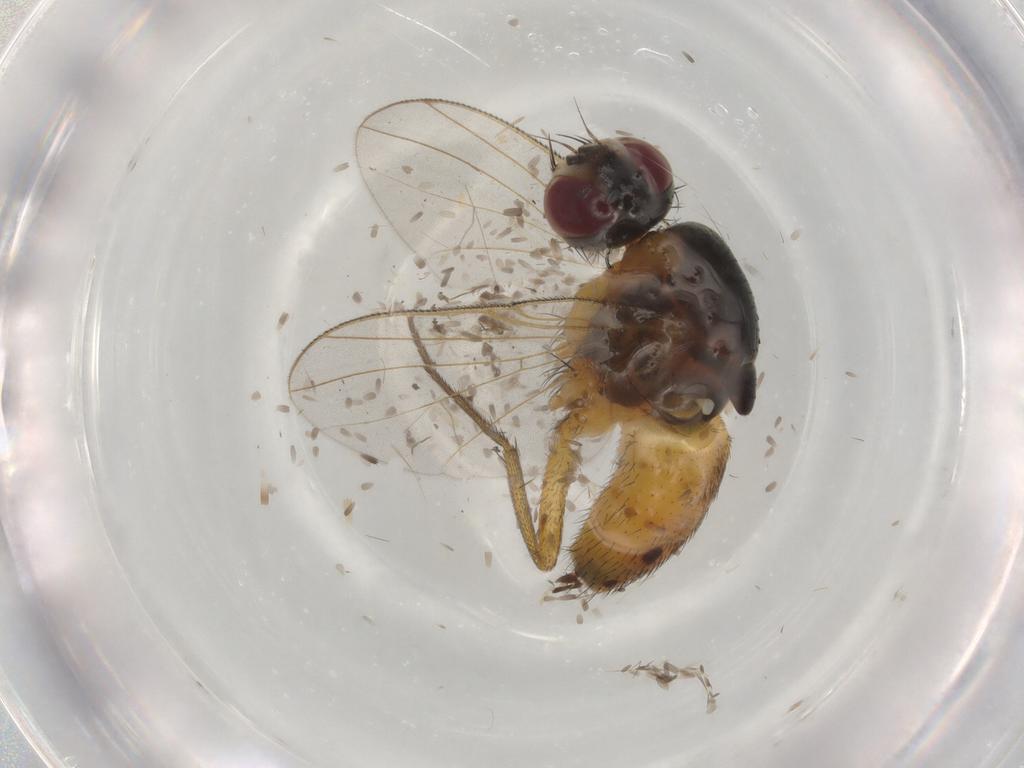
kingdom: Animalia
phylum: Arthropoda
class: Insecta
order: Diptera
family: Muscidae
